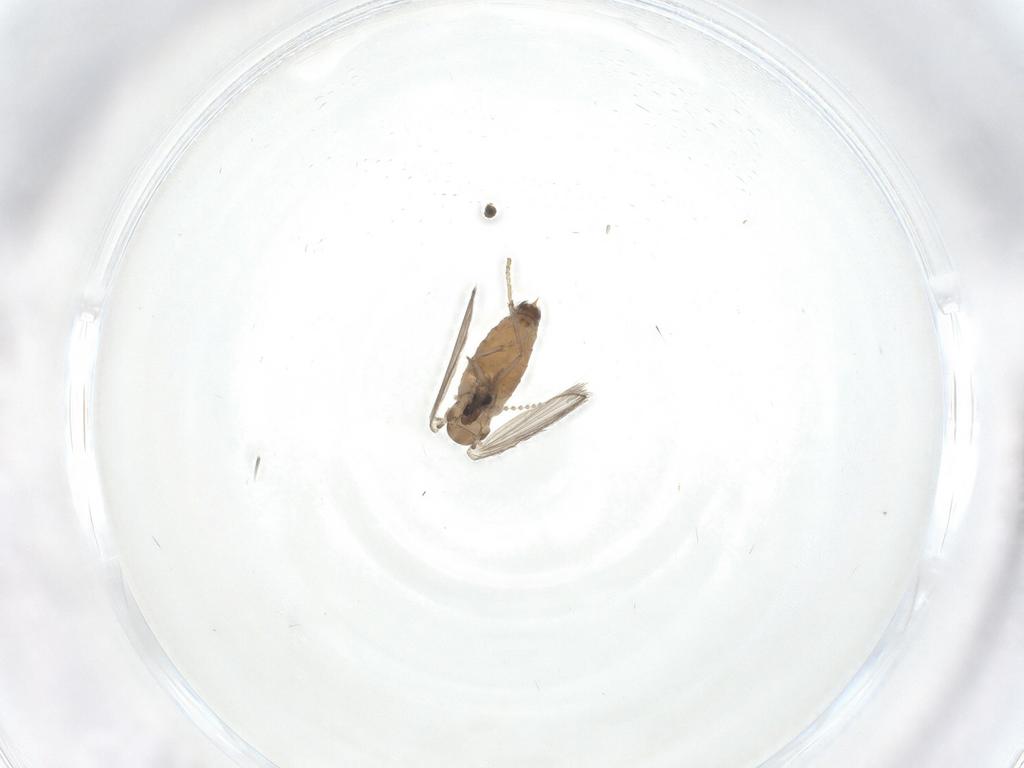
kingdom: Animalia
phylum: Arthropoda
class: Insecta
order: Diptera
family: Psychodidae
